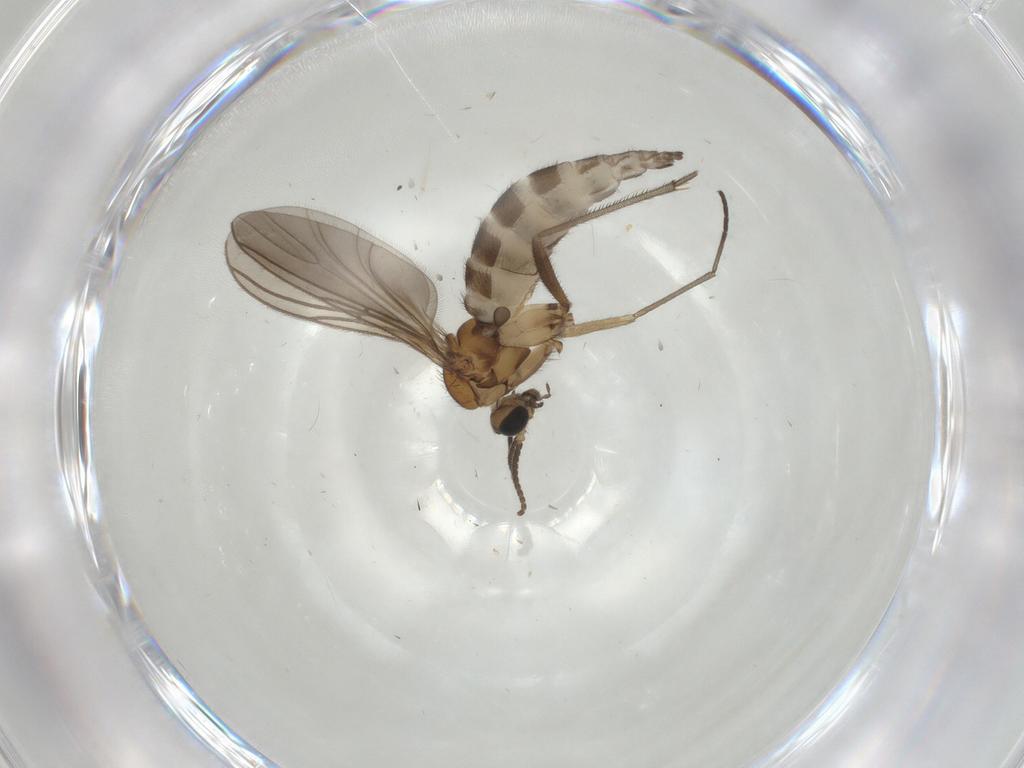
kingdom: Animalia
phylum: Arthropoda
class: Insecta
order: Diptera
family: Sciaridae
